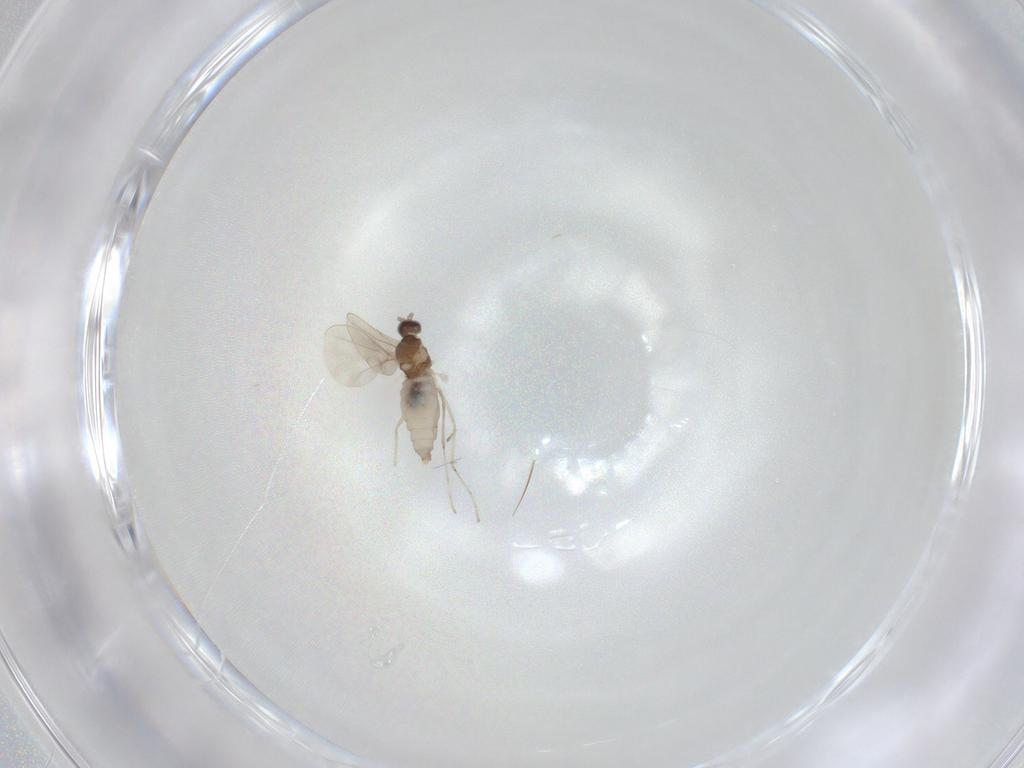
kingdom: Animalia
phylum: Arthropoda
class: Insecta
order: Diptera
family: Cecidomyiidae
